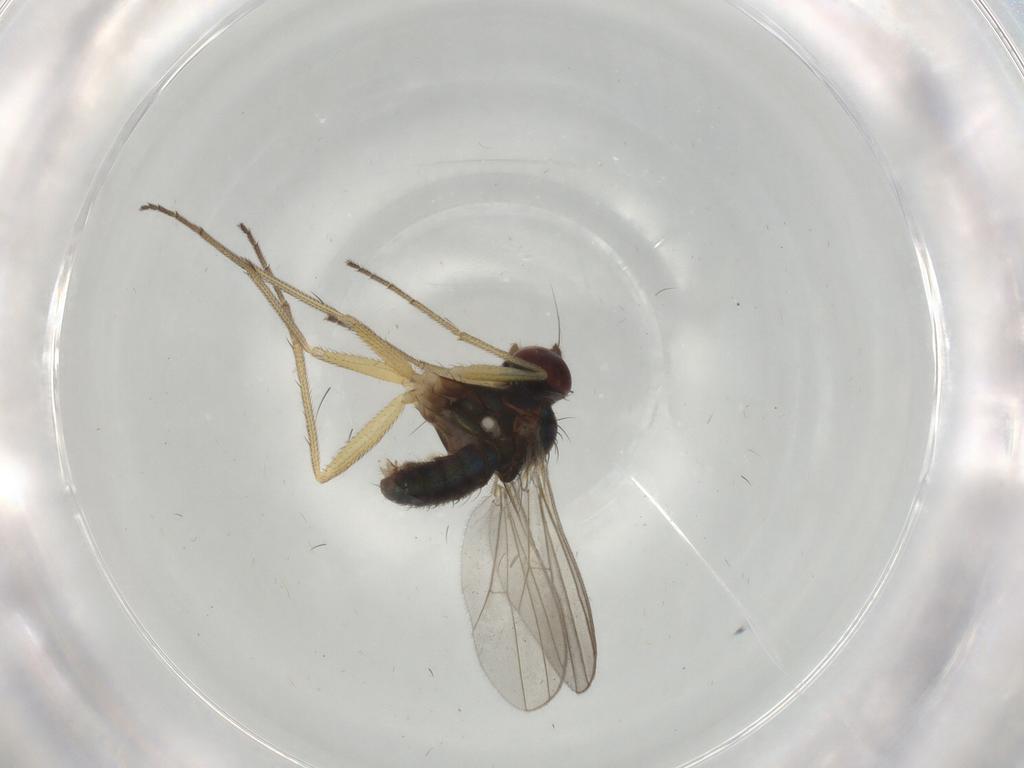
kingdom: Animalia
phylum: Arthropoda
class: Insecta
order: Diptera
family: Dolichopodidae
